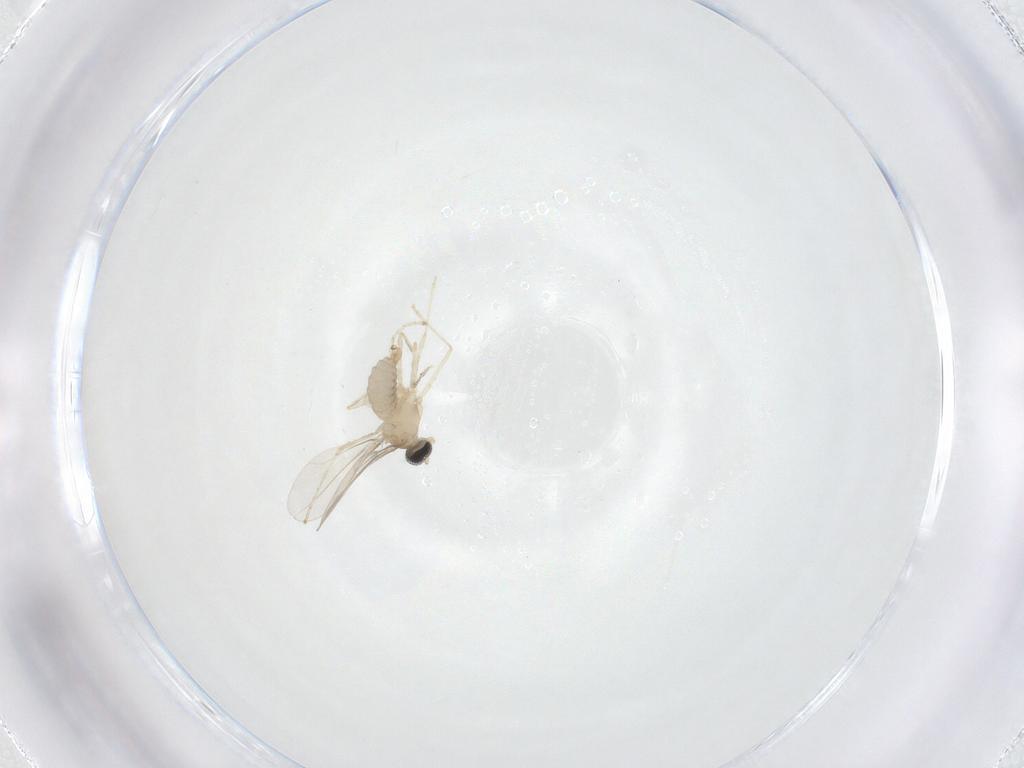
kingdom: Animalia
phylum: Arthropoda
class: Insecta
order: Diptera
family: Cecidomyiidae
